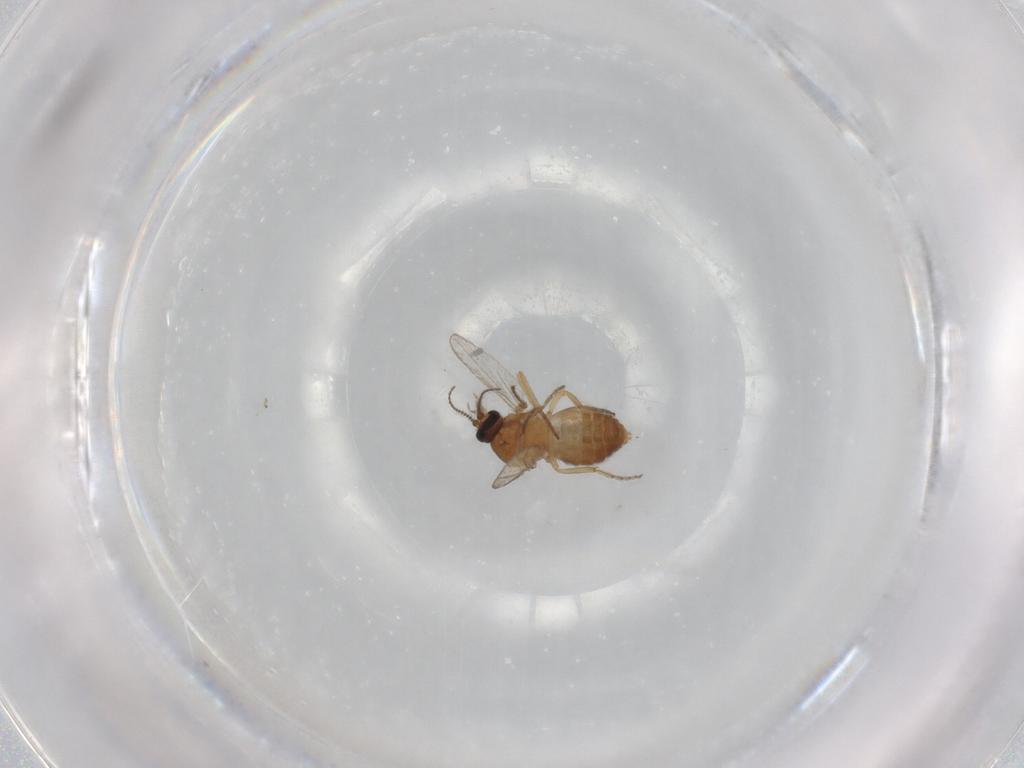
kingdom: Animalia
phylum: Arthropoda
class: Insecta
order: Diptera
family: Ceratopogonidae
